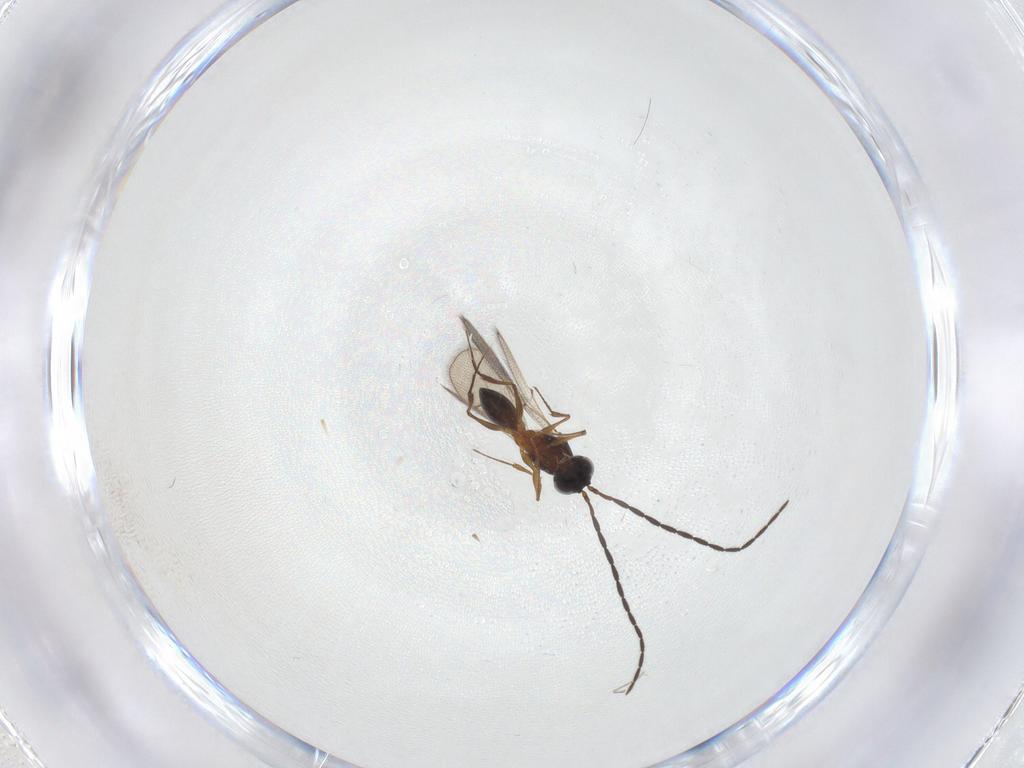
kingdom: Animalia
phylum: Arthropoda
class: Insecta
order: Hymenoptera
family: Figitidae
